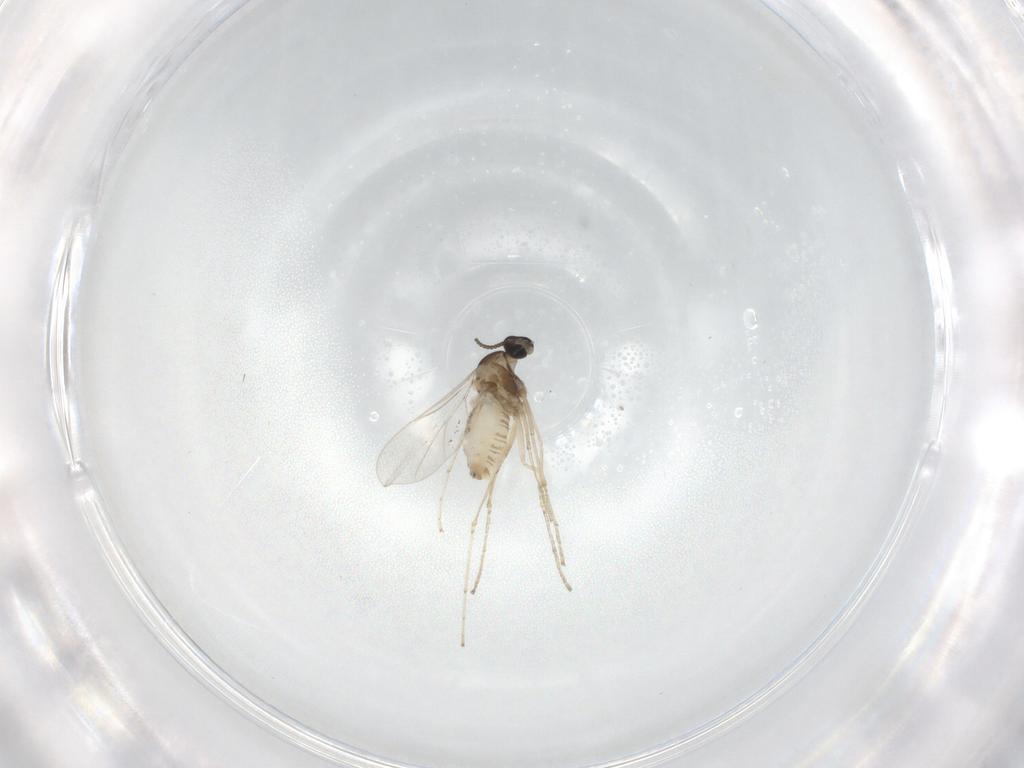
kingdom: Animalia
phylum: Arthropoda
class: Insecta
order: Diptera
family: Cecidomyiidae
